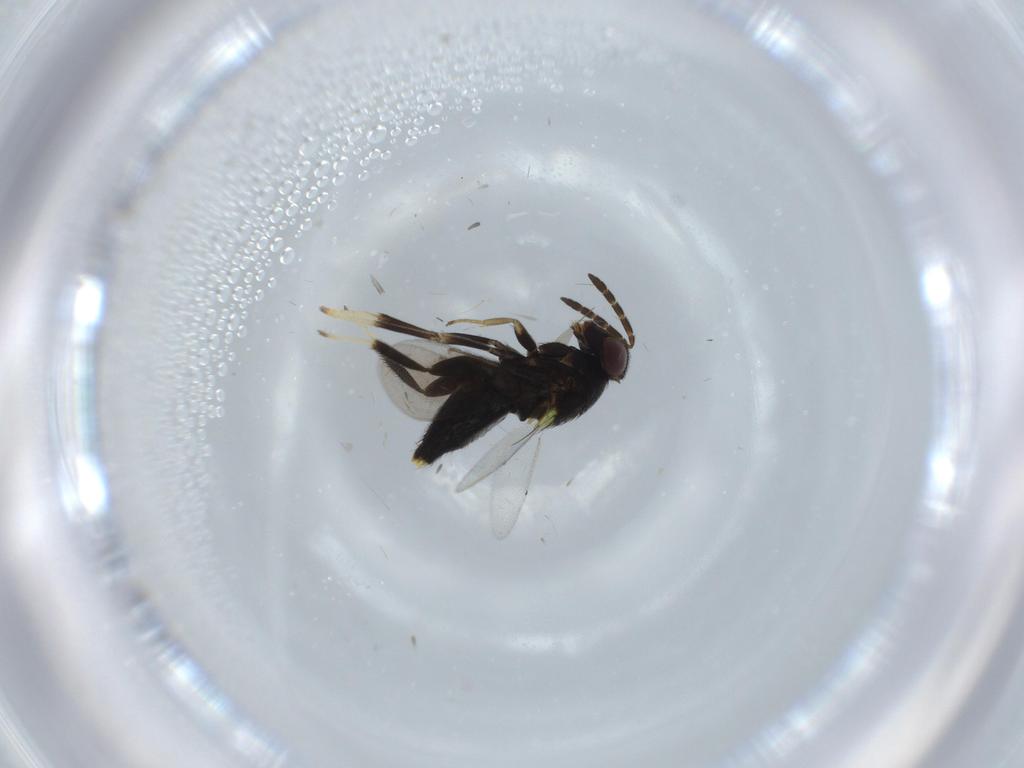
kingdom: Animalia
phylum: Arthropoda
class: Insecta
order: Hymenoptera
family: Aphelinidae
